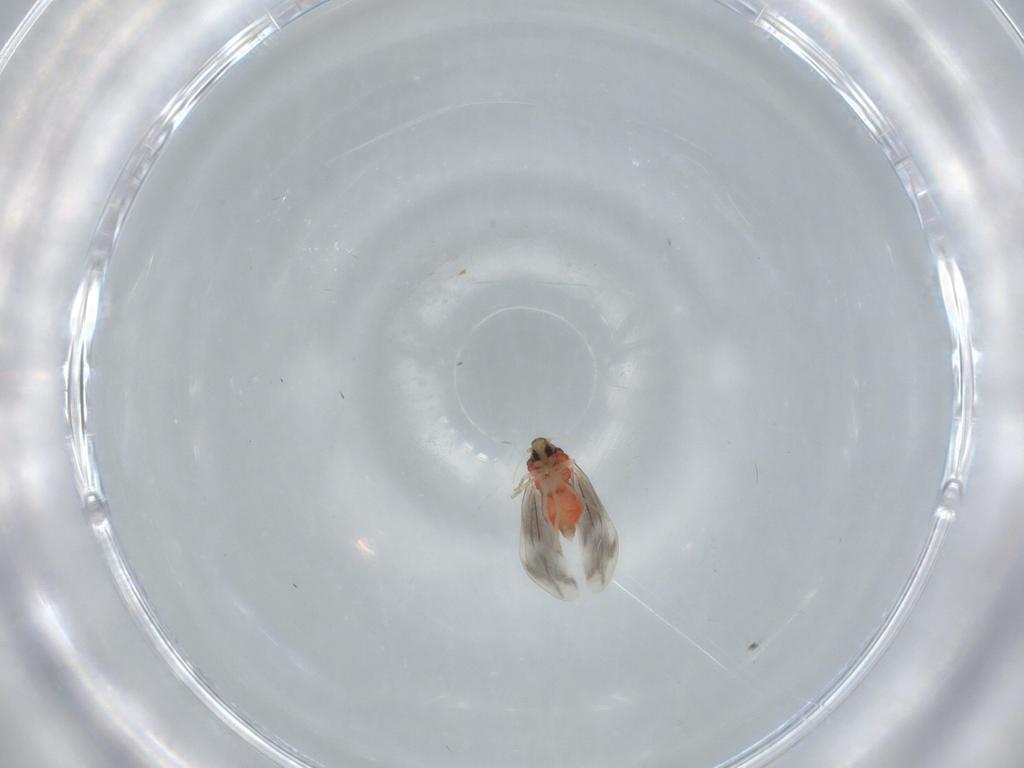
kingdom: Animalia
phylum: Arthropoda
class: Insecta
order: Hemiptera
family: Aleyrodidae
